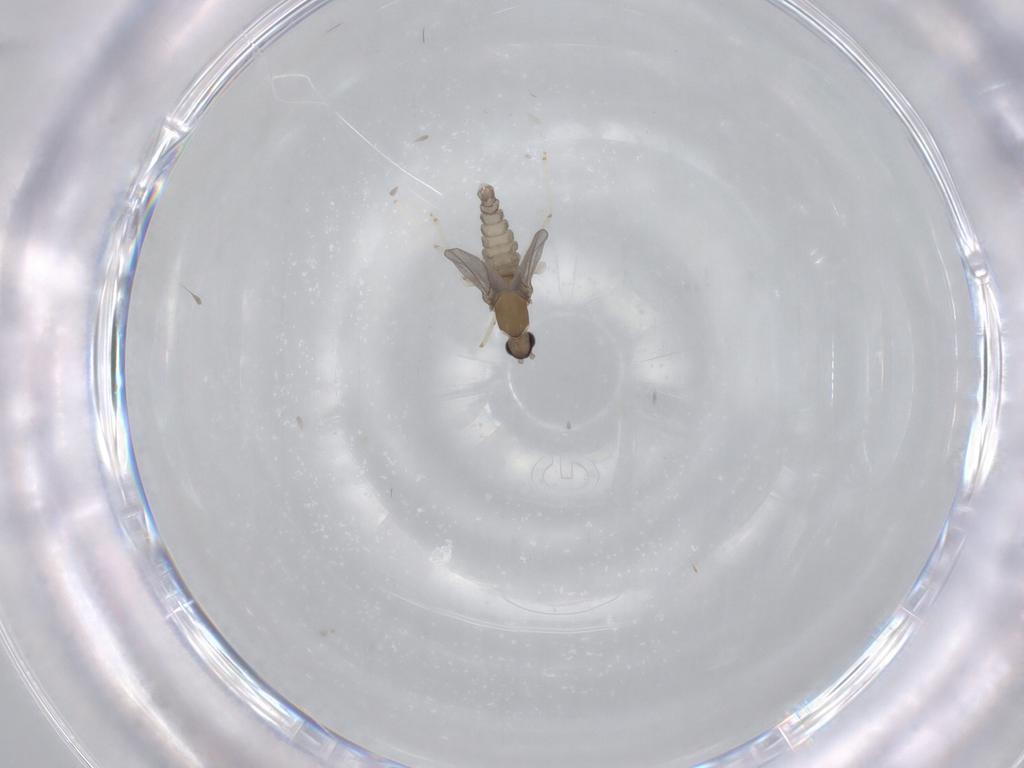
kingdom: Animalia
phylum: Arthropoda
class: Insecta
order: Diptera
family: Cecidomyiidae
